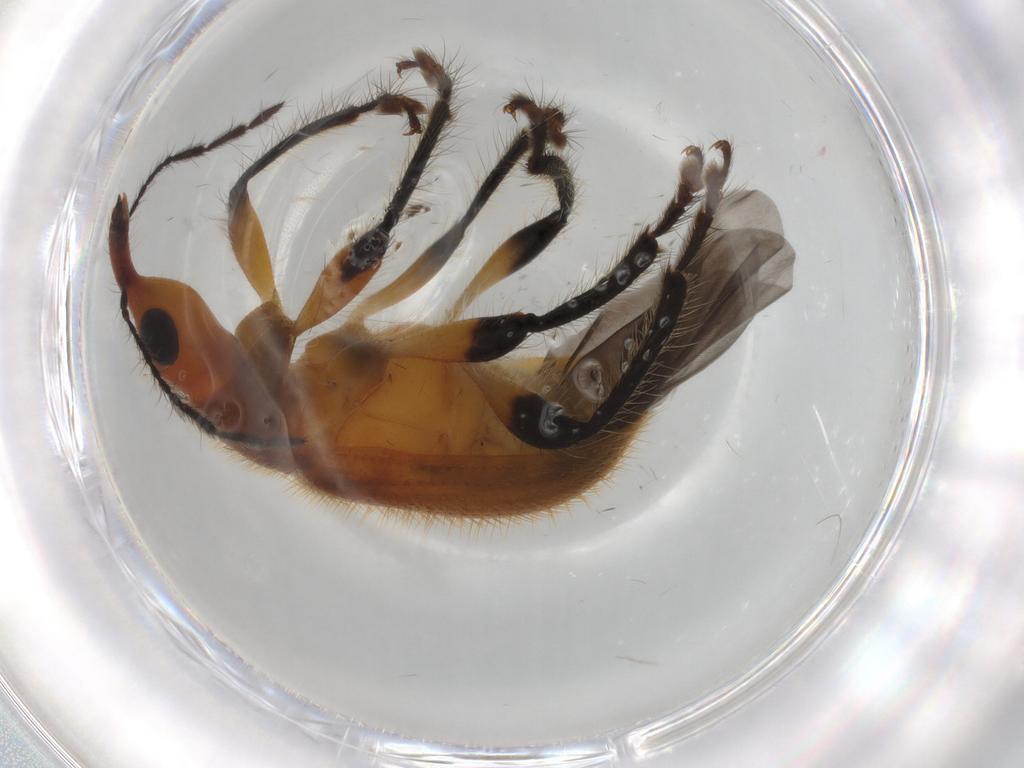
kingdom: Animalia
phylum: Arthropoda
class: Insecta
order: Coleoptera
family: Attelabidae
